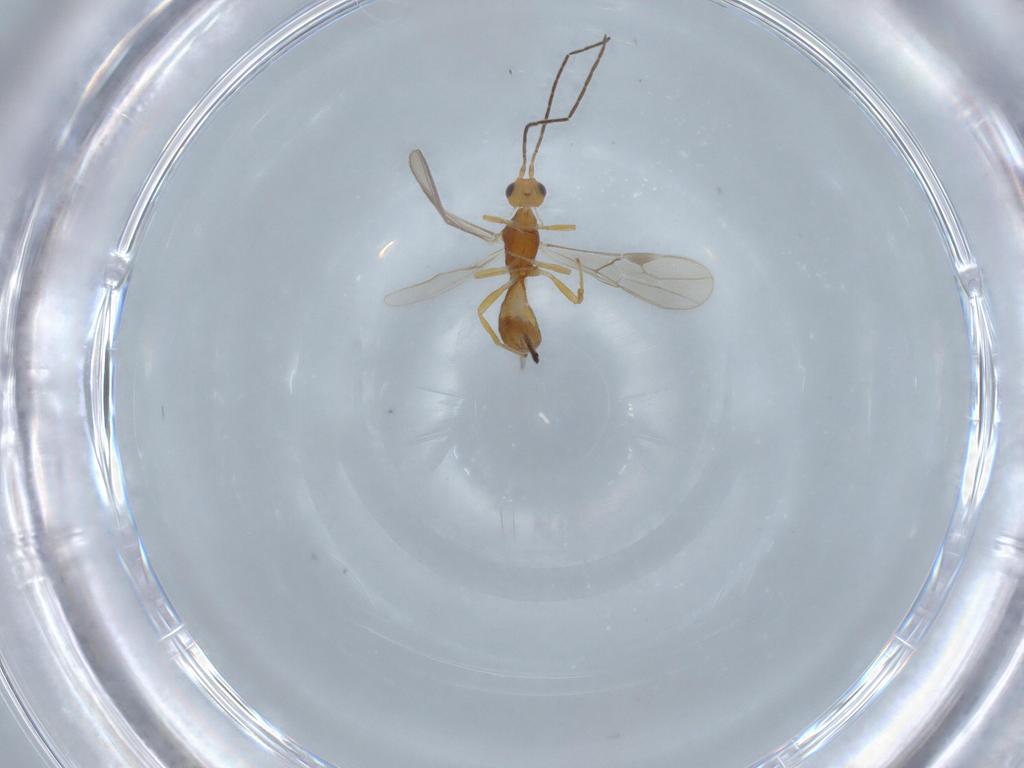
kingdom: Animalia
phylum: Arthropoda
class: Insecta
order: Hymenoptera
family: Braconidae
